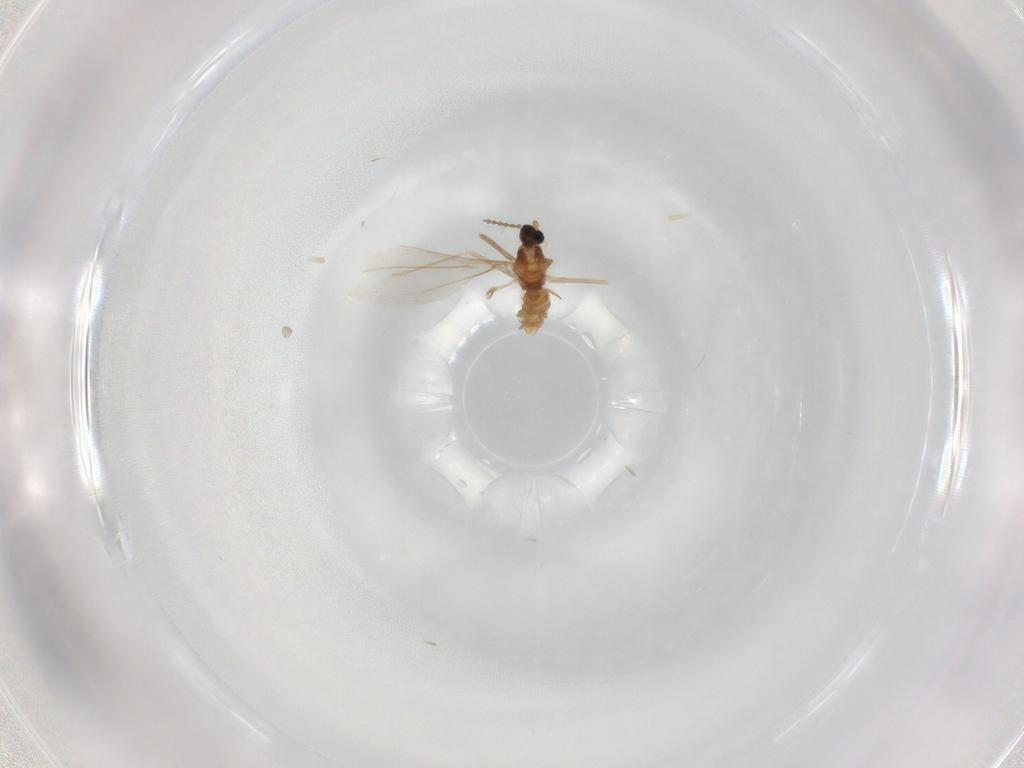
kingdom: Animalia
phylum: Arthropoda
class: Insecta
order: Diptera
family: Cecidomyiidae
